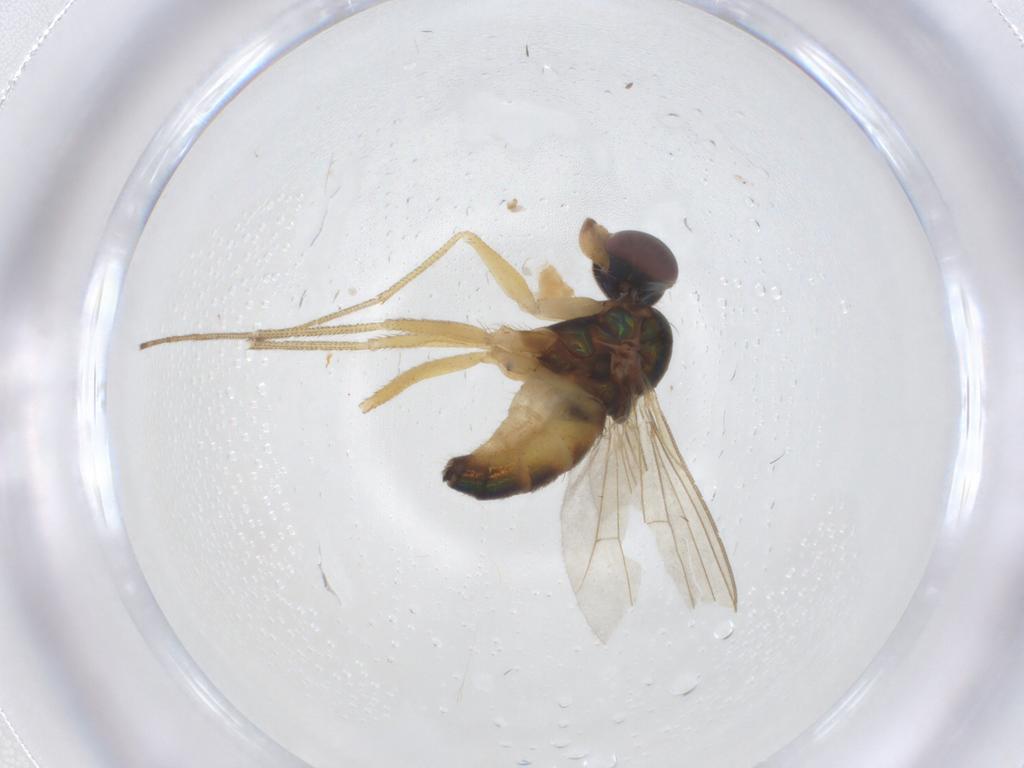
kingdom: Animalia
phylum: Arthropoda
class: Insecta
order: Diptera
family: Dolichopodidae
